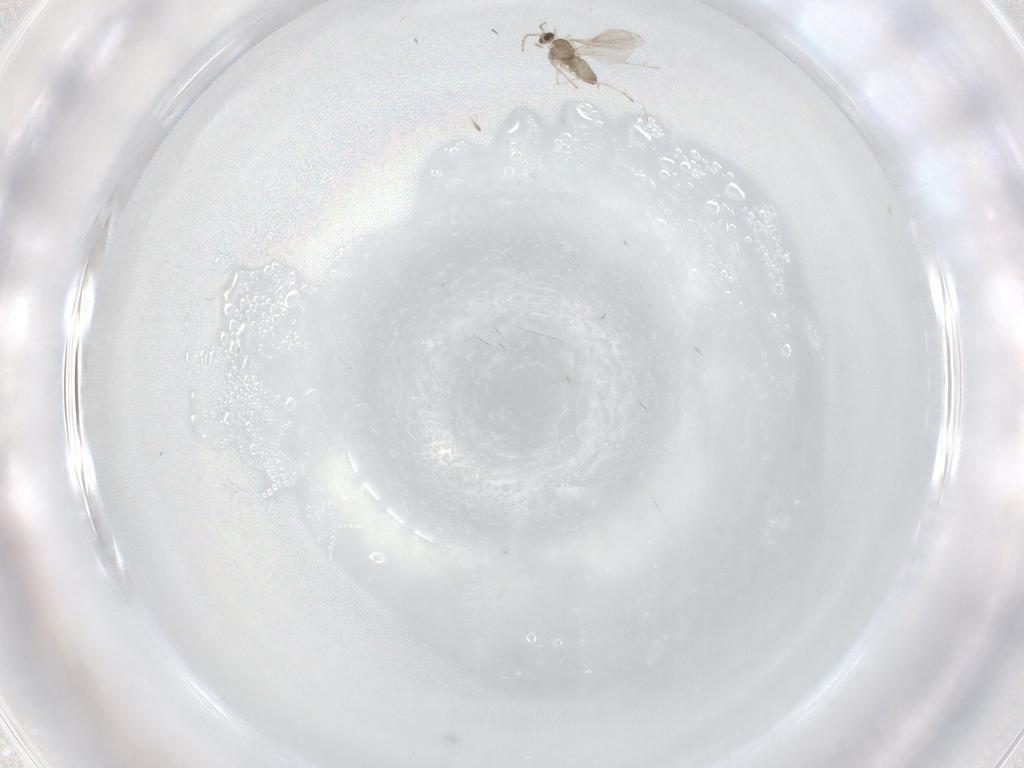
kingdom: Animalia
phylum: Arthropoda
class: Insecta
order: Diptera
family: Cecidomyiidae
